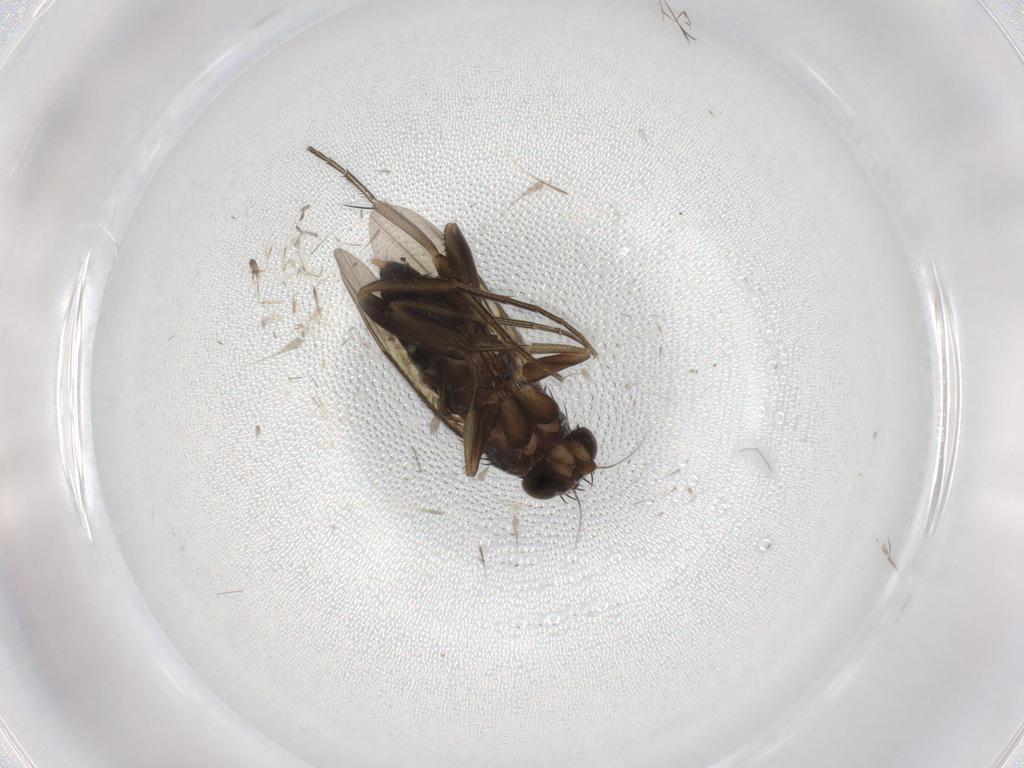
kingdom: Animalia
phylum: Arthropoda
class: Insecta
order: Diptera
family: Phoridae
